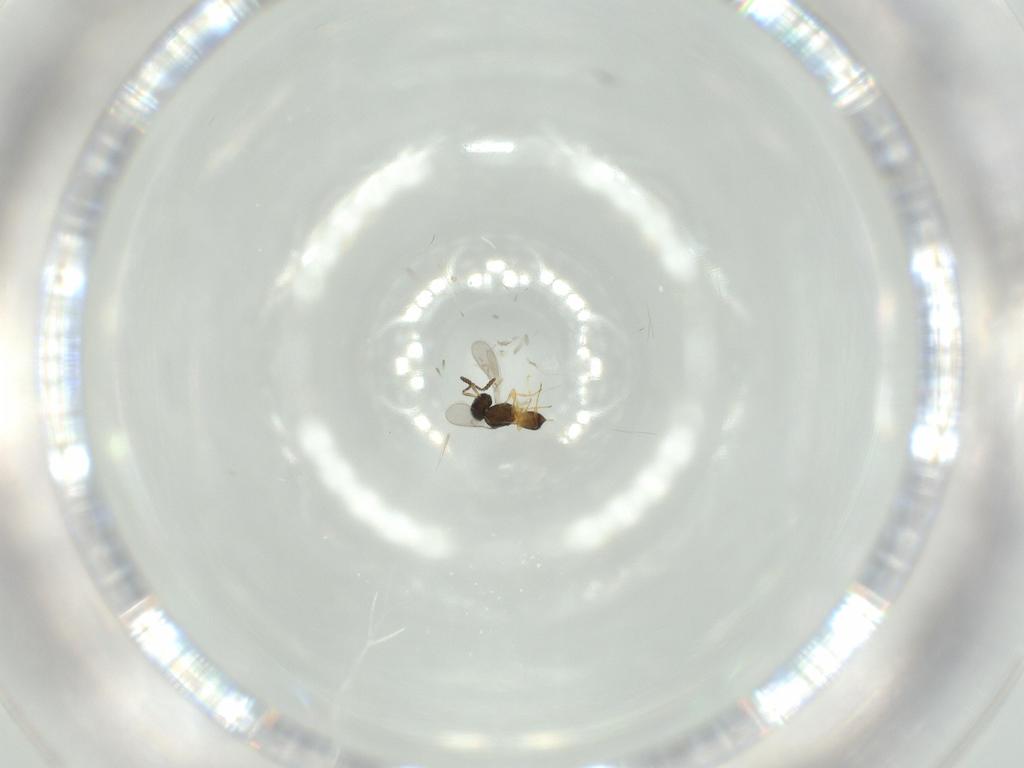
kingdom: Animalia
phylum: Arthropoda
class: Insecta
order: Hymenoptera
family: Scelionidae
